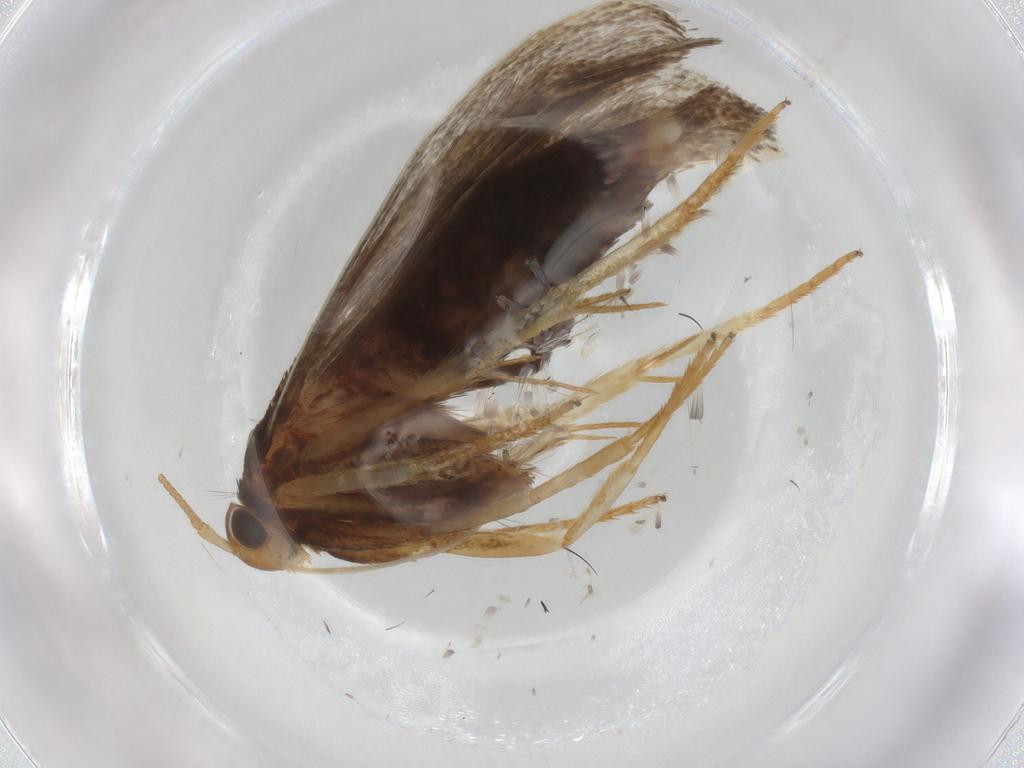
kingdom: Animalia
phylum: Arthropoda
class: Insecta
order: Lepidoptera
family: Lecithoceridae
